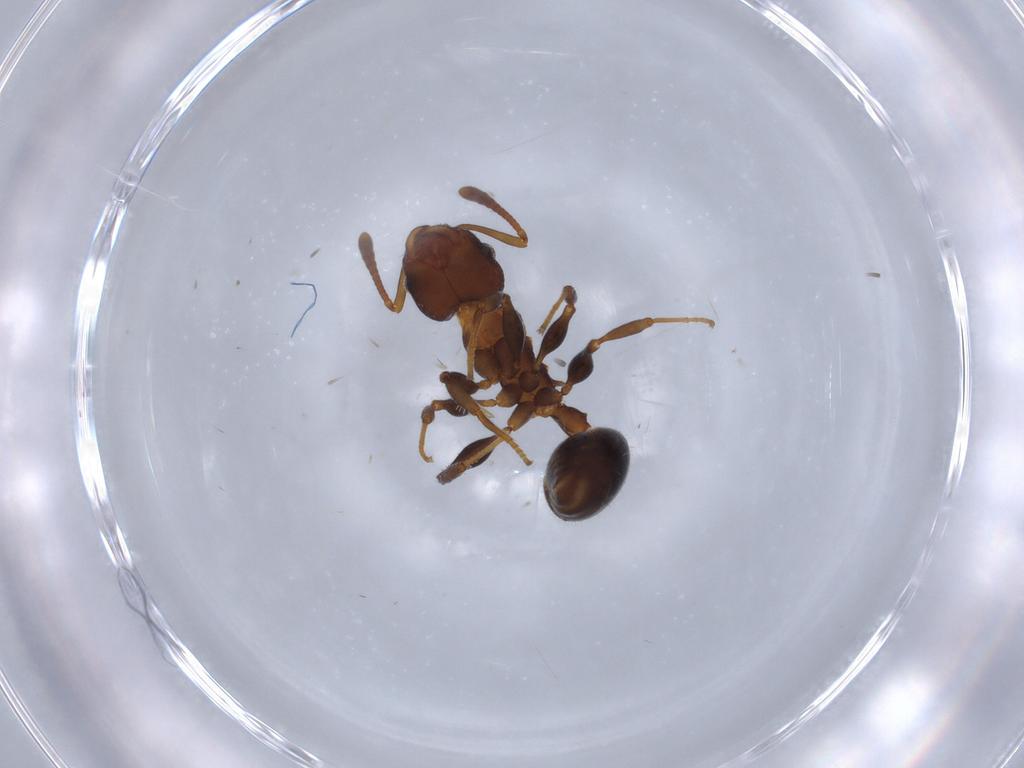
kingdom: Animalia
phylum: Arthropoda
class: Insecta
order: Hymenoptera
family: Formicidae
